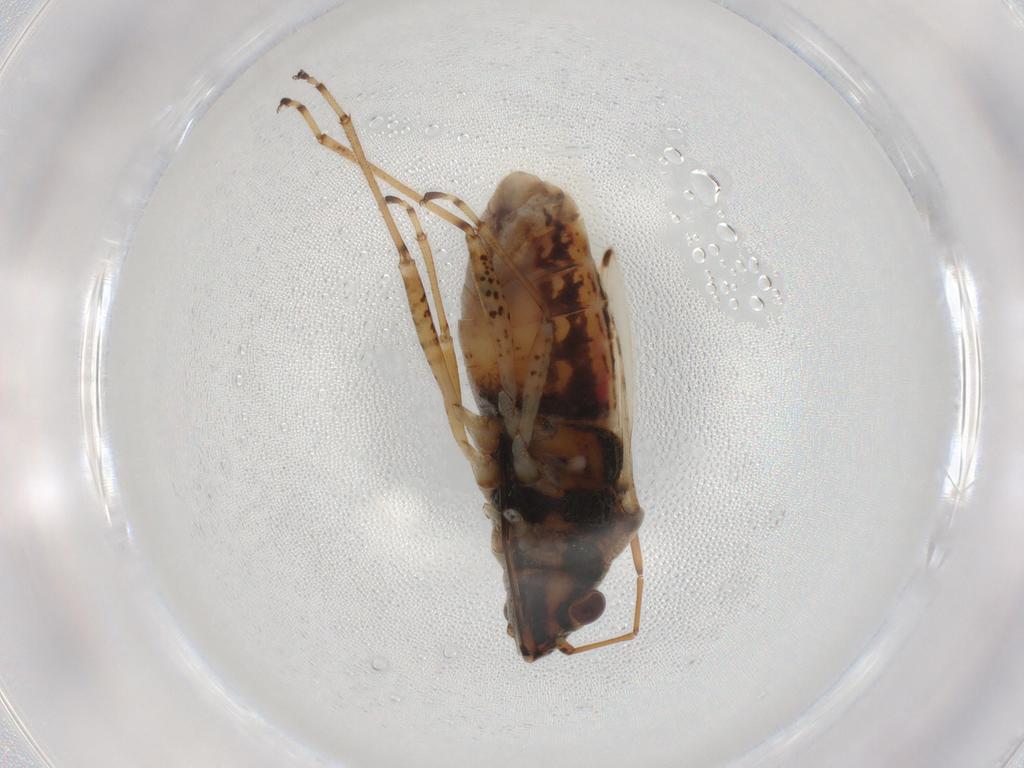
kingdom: Animalia
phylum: Arthropoda
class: Insecta
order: Hemiptera
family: Lygaeidae
